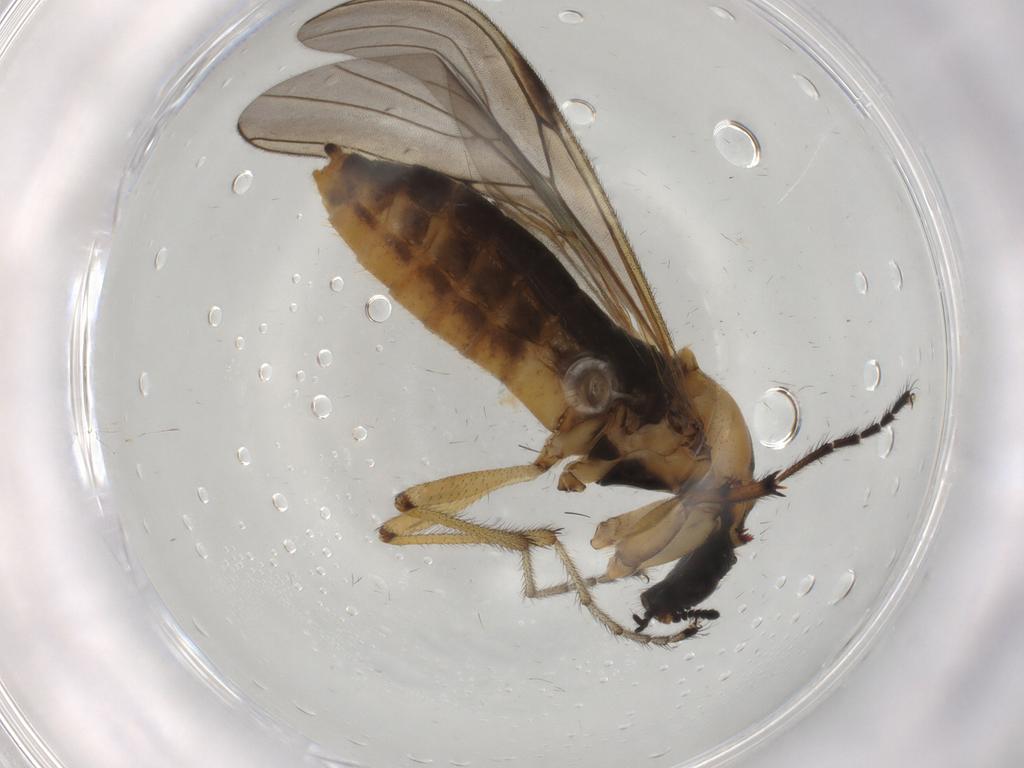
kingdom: Animalia
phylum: Arthropoda
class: Insecta
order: Diptera
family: Bibionidae
